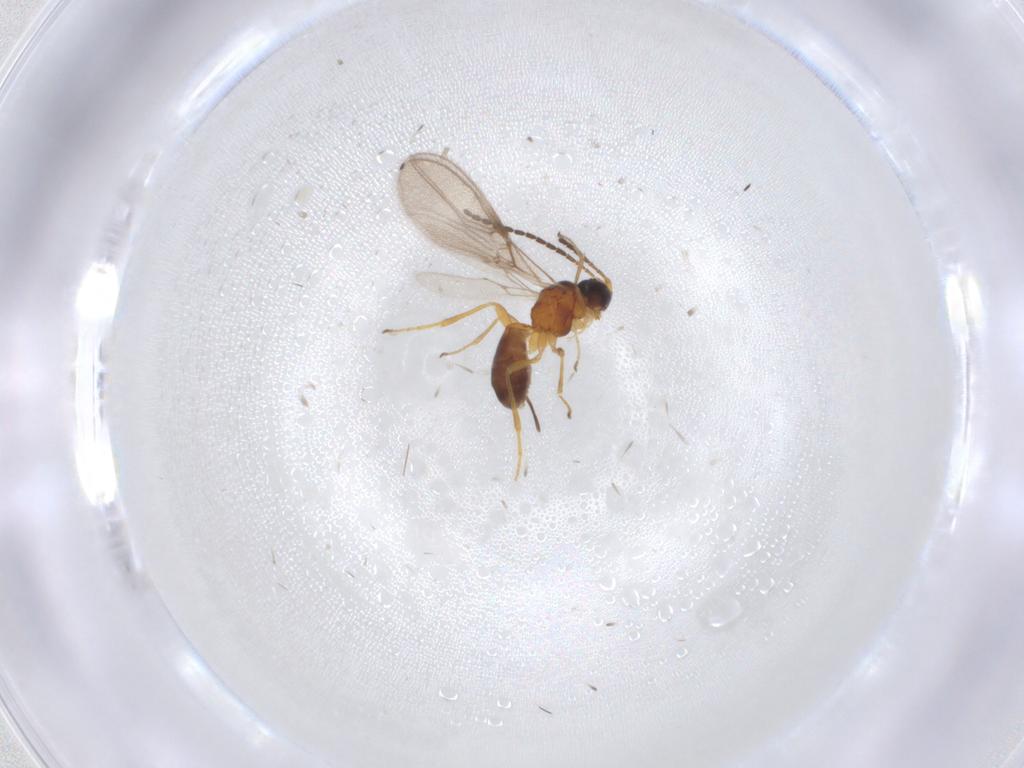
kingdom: Animalia
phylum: Arthropoda
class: Insecta
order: Hymenoptera
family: Braconidae
